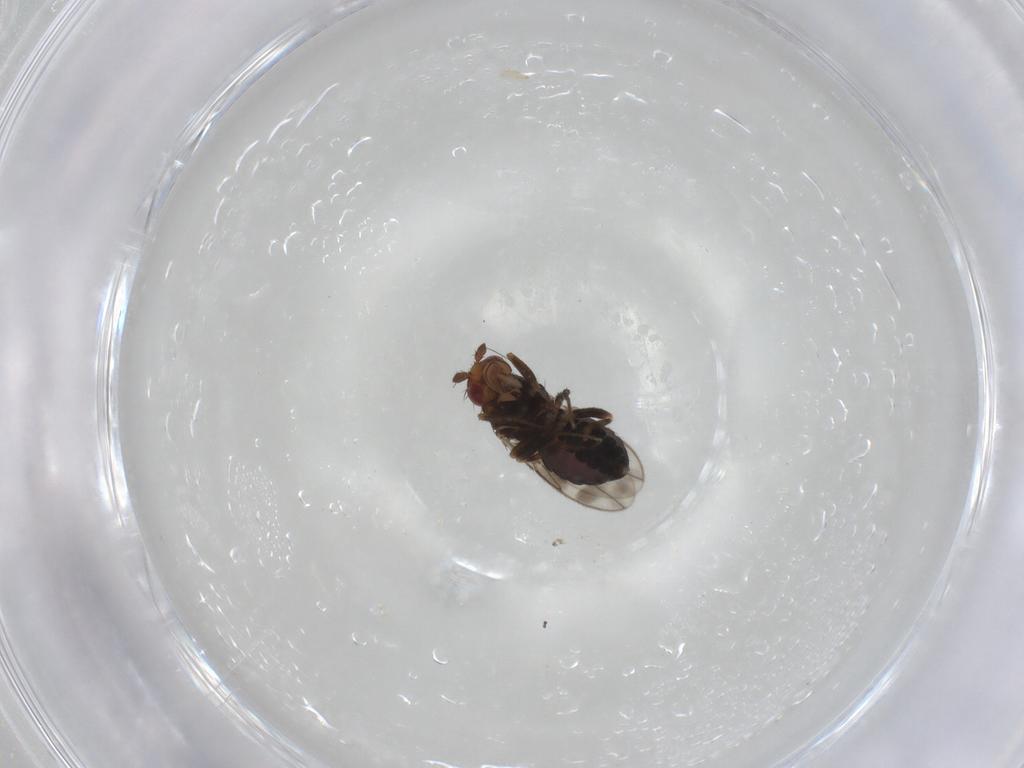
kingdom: Animalia
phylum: Arthropoda
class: Insecta
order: Diptera
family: Sphaeroceridae
